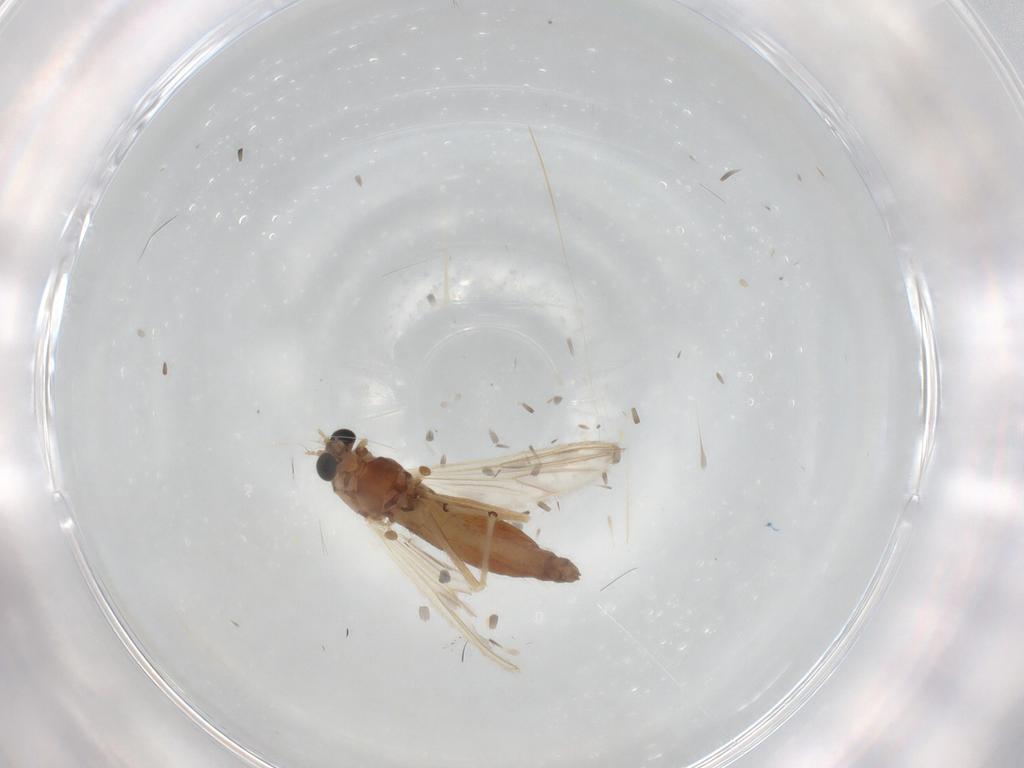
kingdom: Animalia
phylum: Arthropoda
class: Insecta
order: Diptera
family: Chironomidae
